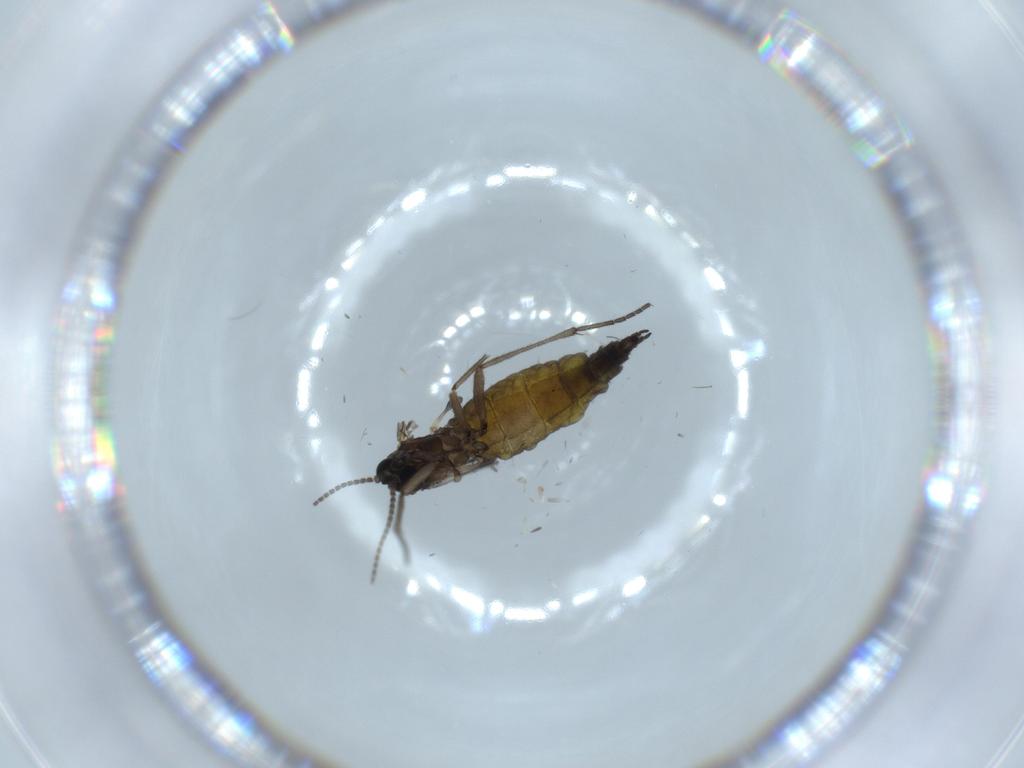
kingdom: Animalia
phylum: Arthropoda
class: Insecta
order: Diptera
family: Sciaridae
